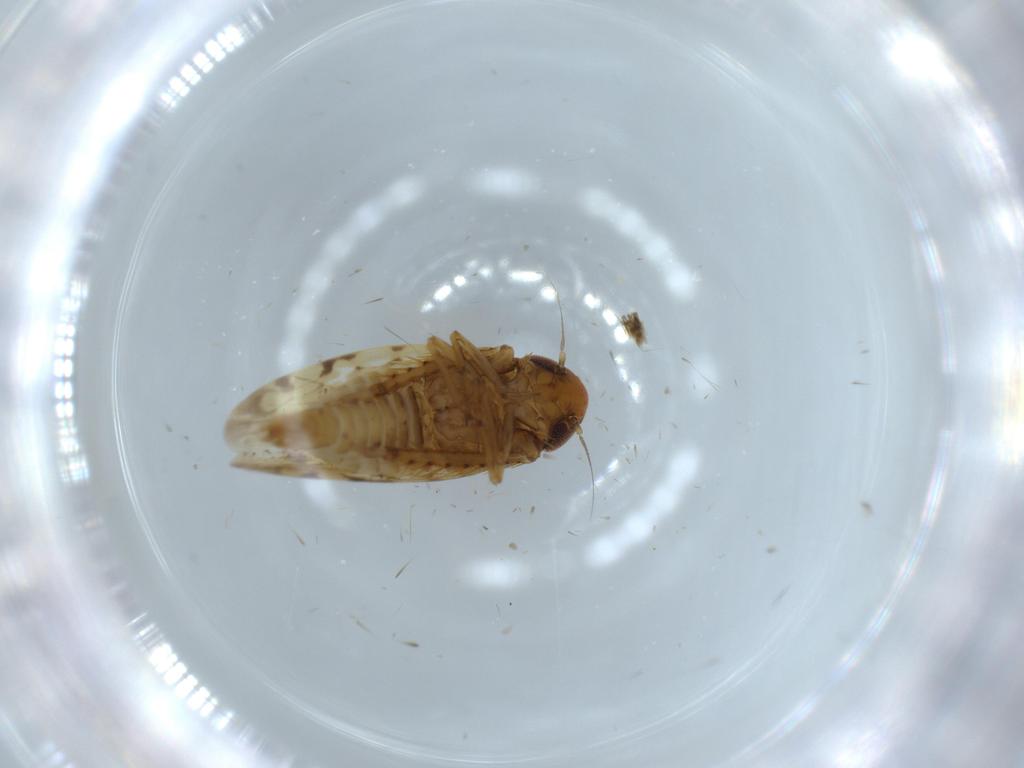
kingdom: Animalia
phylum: Arthropoda
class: Insecta
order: Hemiptera
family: Cicadellidae
